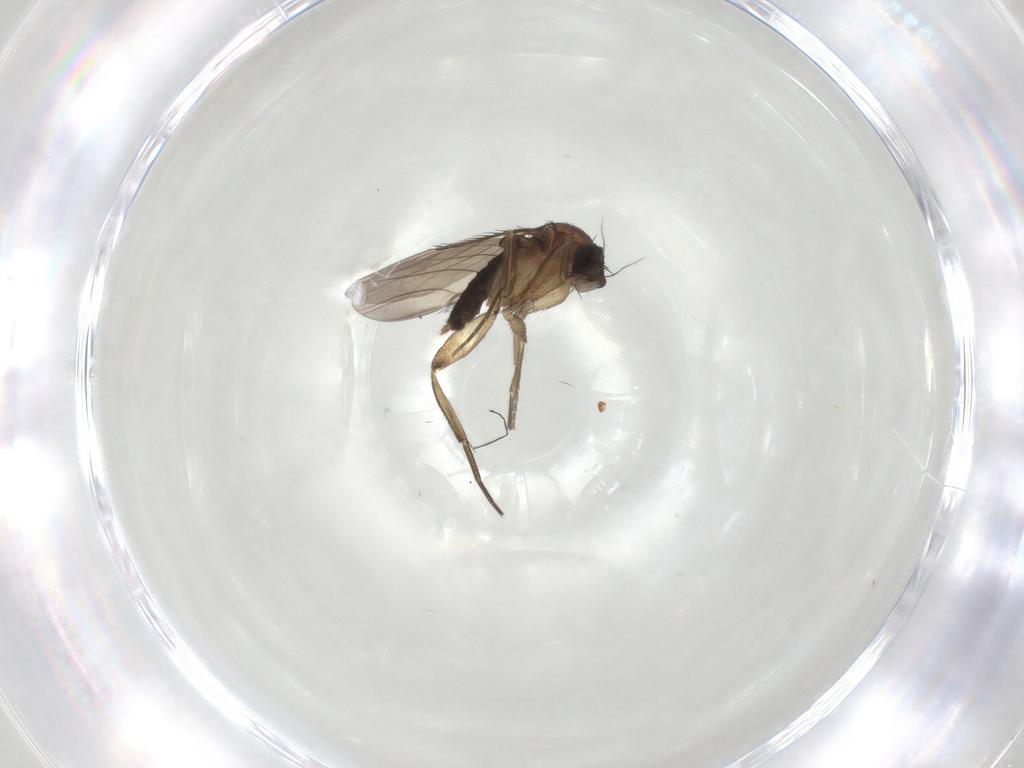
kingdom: Animalia
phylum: Arthropoda
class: Insecta
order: Diptera
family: Phoridae
